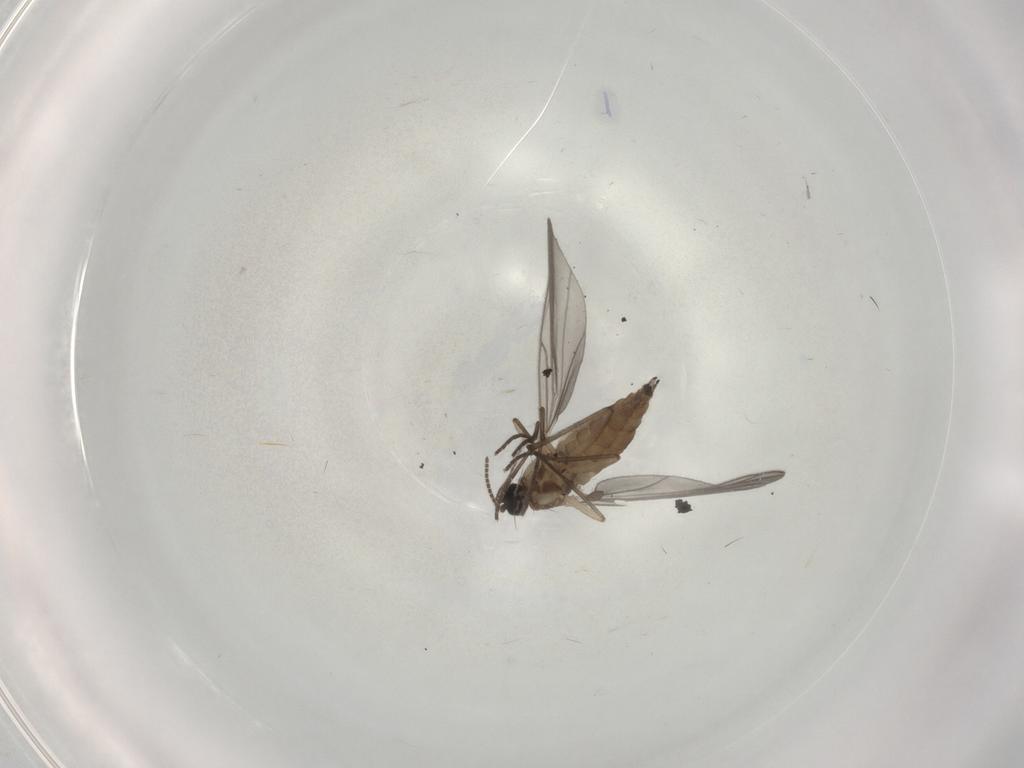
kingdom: Animalia
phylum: Arthropoda
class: Insecta
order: Diptera
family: Sciaridae
